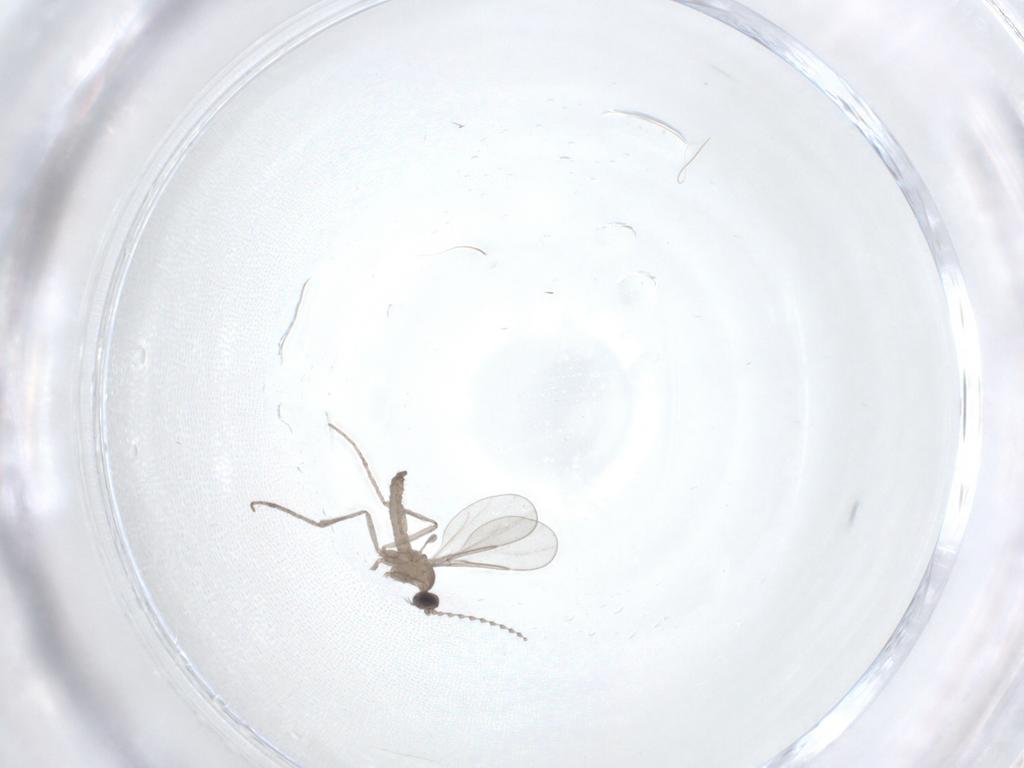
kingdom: Animalia
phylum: Arthropoda
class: Insecta
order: Diptera
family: Cecidomyiidae
